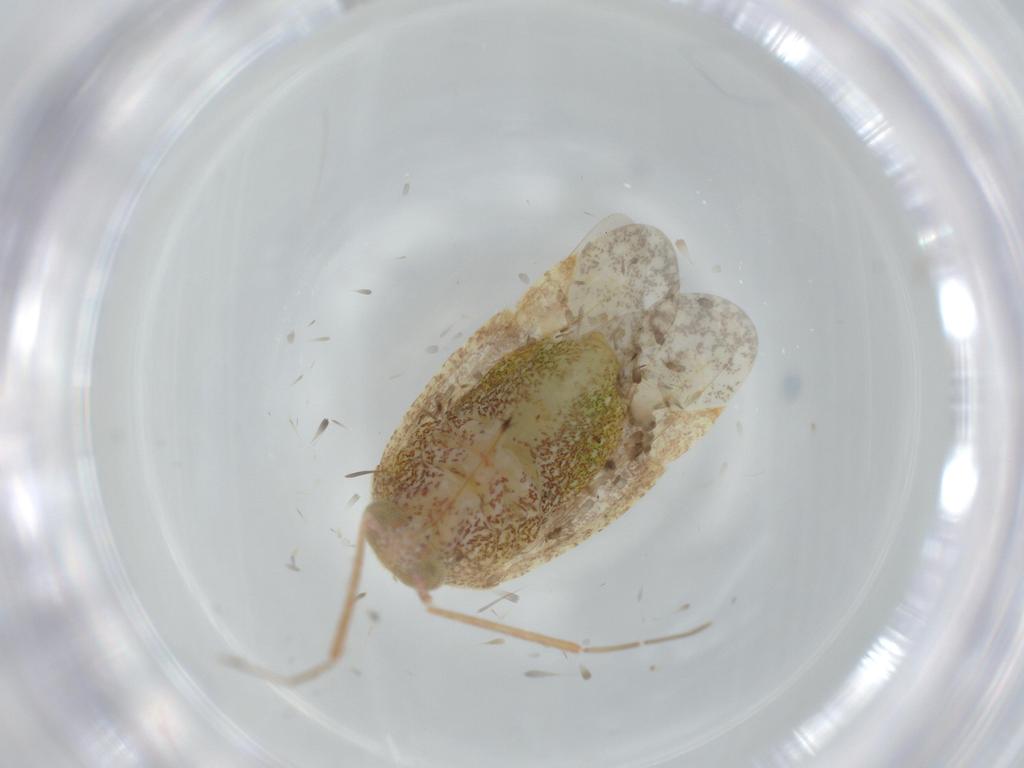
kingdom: Animalia
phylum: Arthropoda
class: Insecta
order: Hemiptera
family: Miridae
